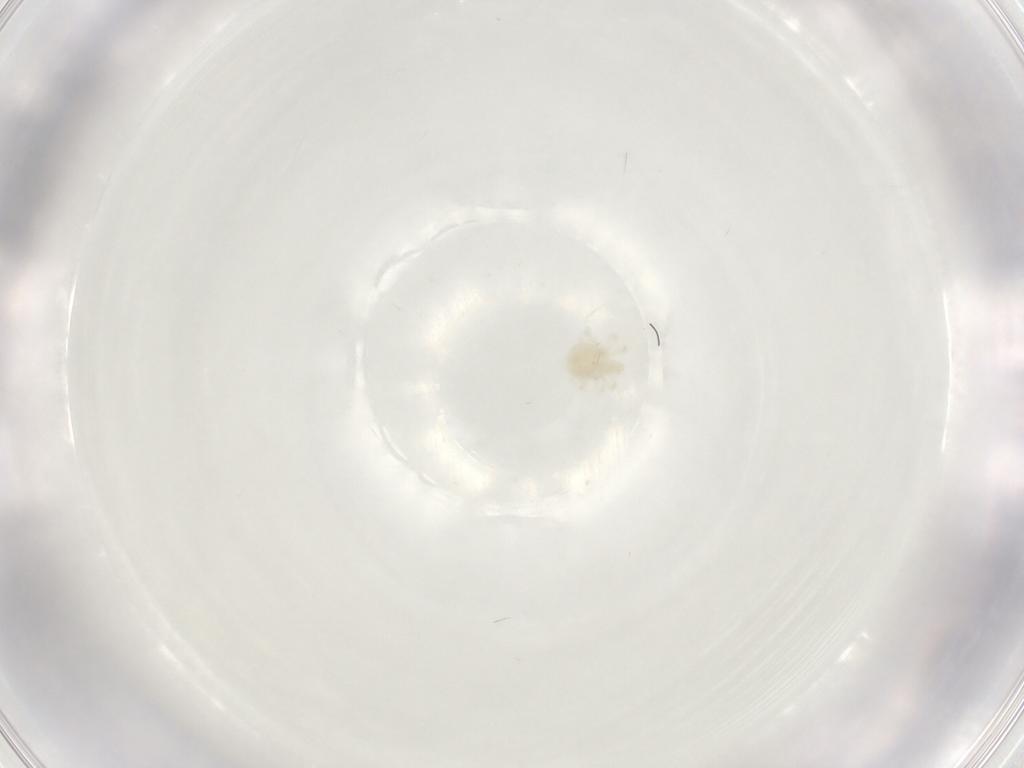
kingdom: Animalia
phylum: Arthropoda
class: Arachnida
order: Trombidiformes
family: Anystidae
